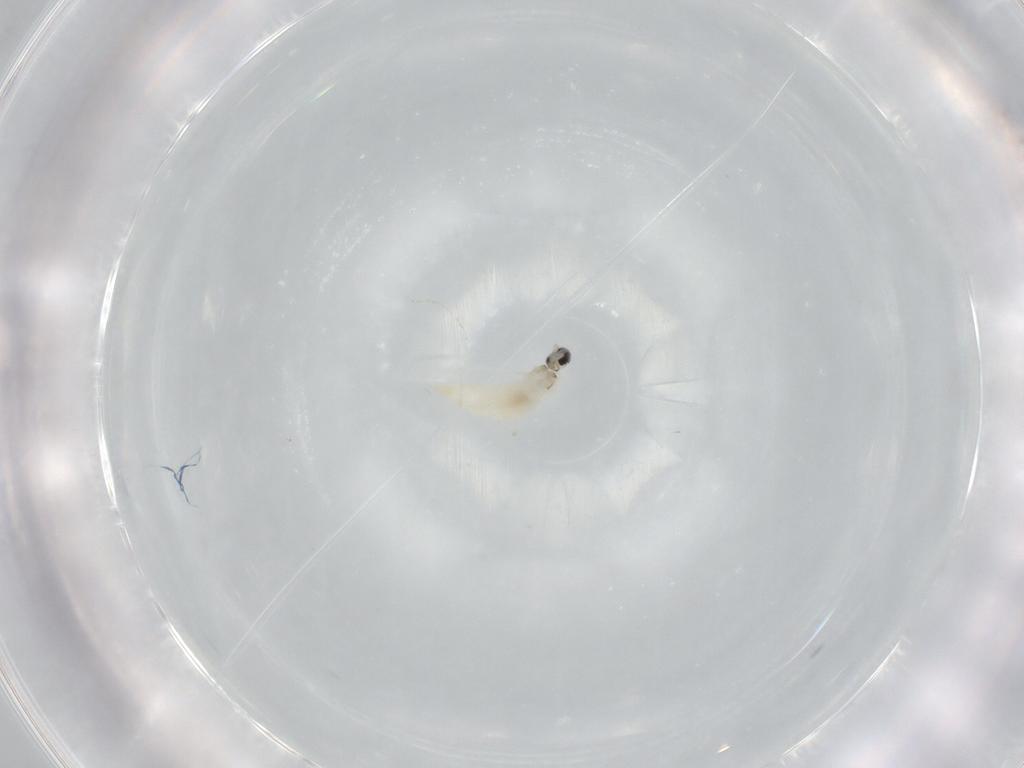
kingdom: Animalia
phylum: Arthropoda
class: Insecta
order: Diptera
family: Cecidomyiidae
